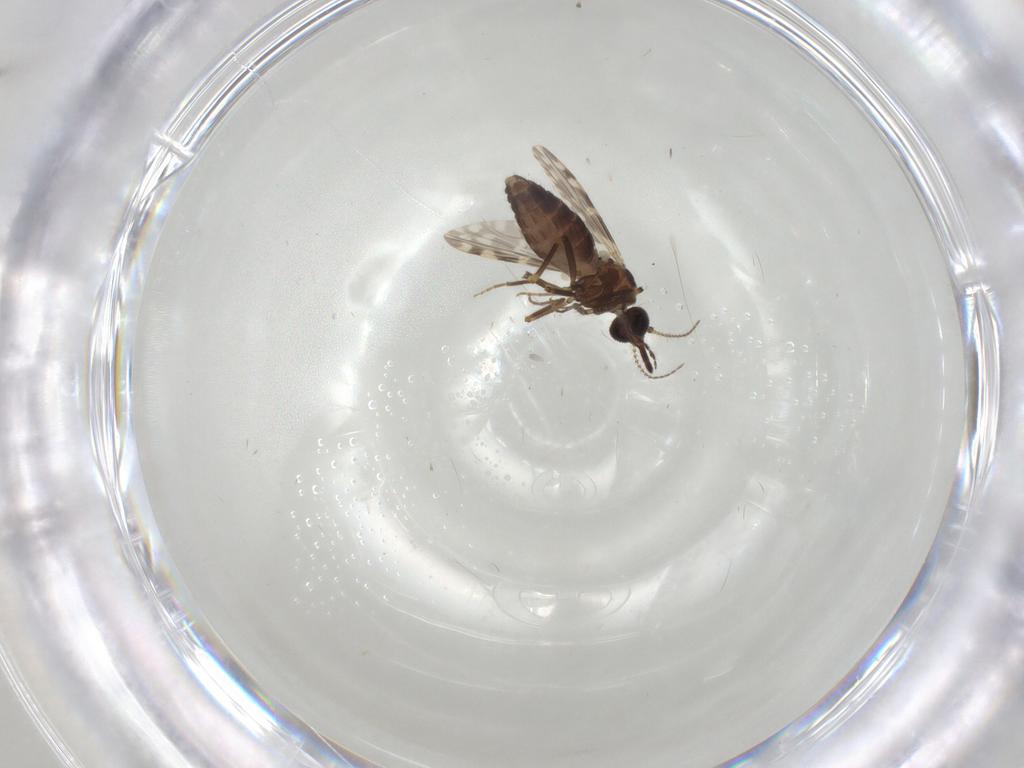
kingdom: Animalia
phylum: Arthropoda
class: Insecta
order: Diptera
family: Ceratopogonidae
